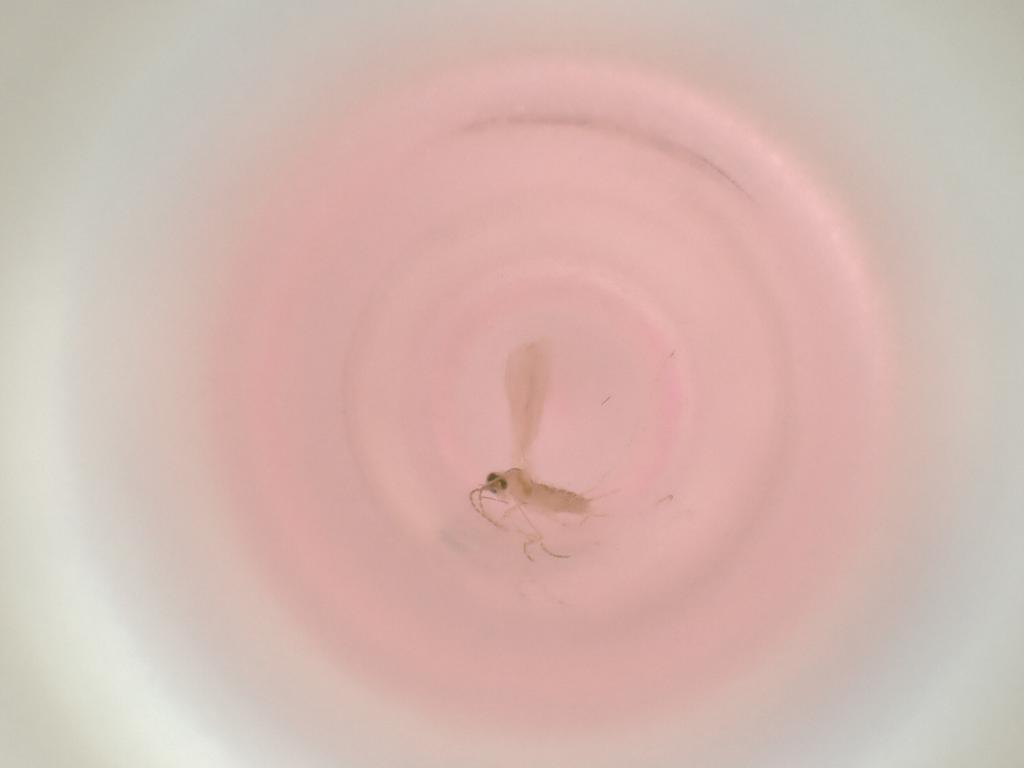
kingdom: Animalia
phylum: Arthropoda
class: Insecta
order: Diptera
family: Cecidomyiidae
